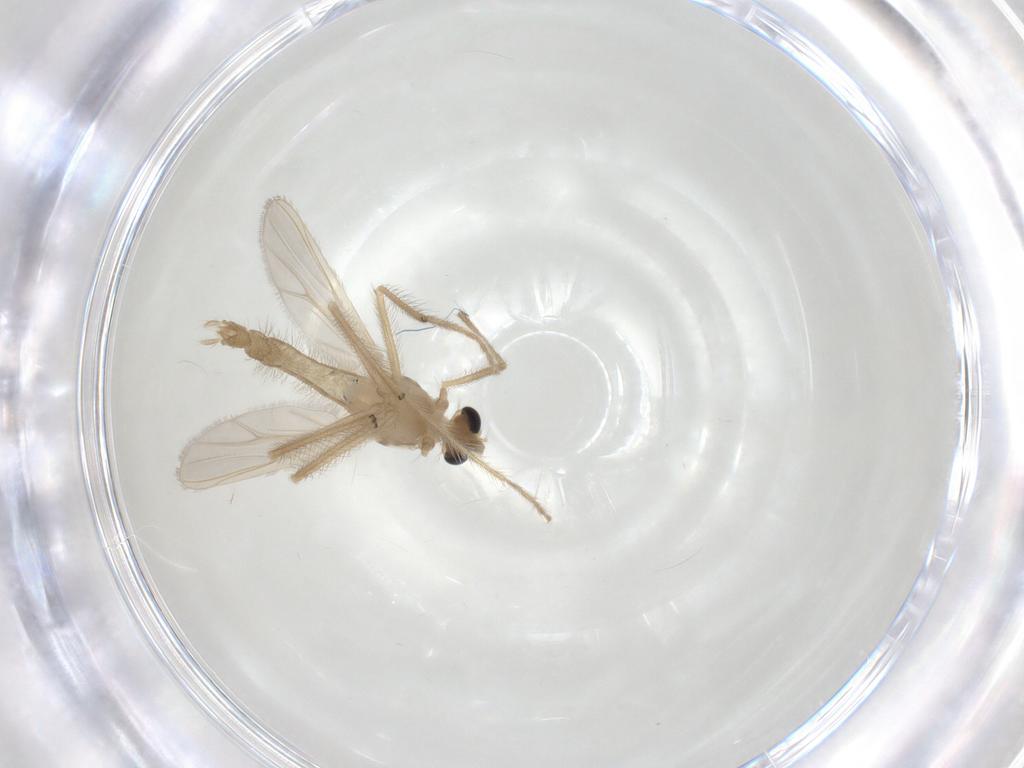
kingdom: Animalia
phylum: Arthropoda
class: Insecta
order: Diptera
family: Chironomidae
